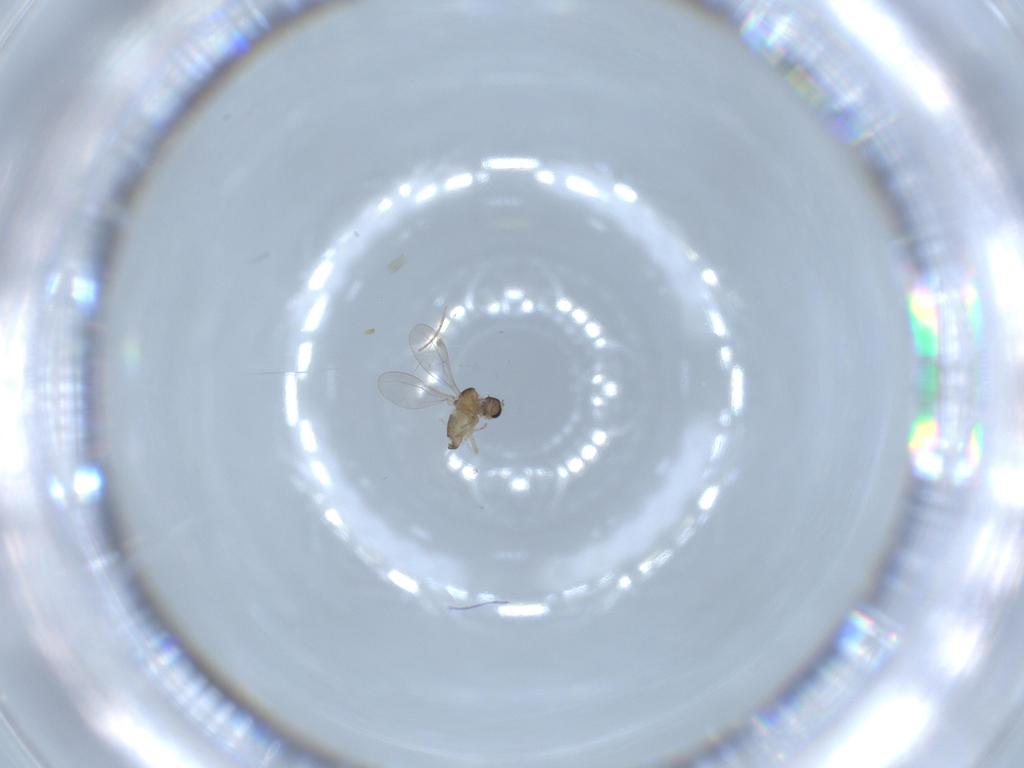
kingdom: Animalia
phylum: Arthropoda
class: Insecta
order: Diptera
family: Cecidomyiidae
